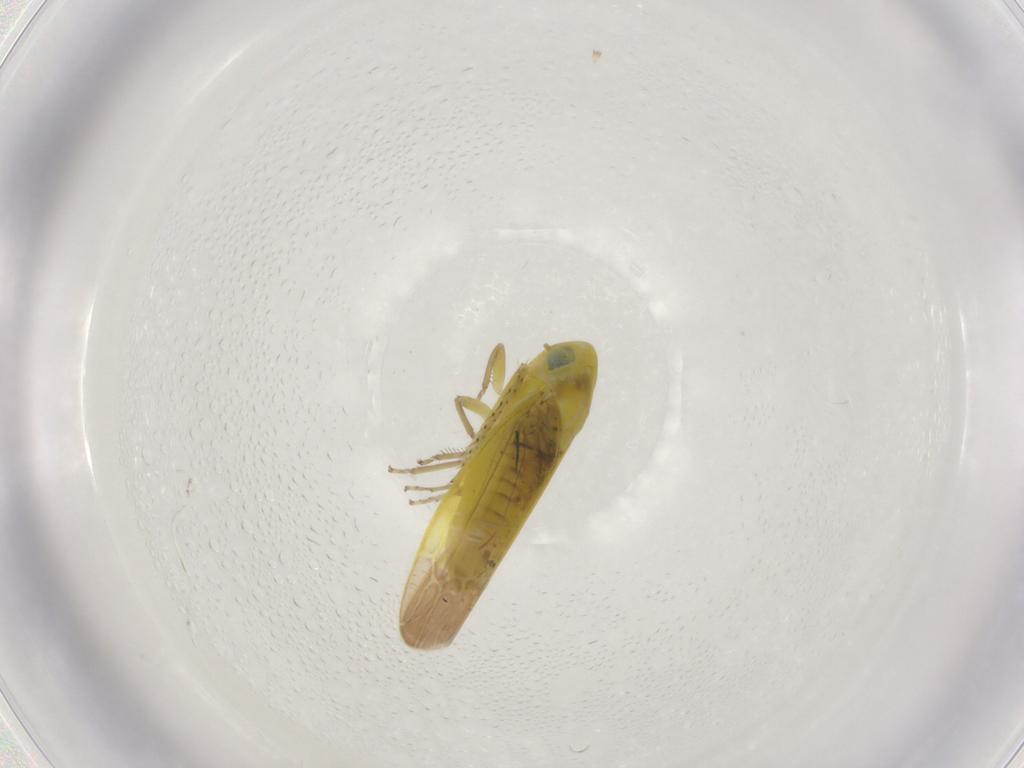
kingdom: Animalia
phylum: Arthropoda
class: Insecta
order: Hemiptera
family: Cicadellidae
